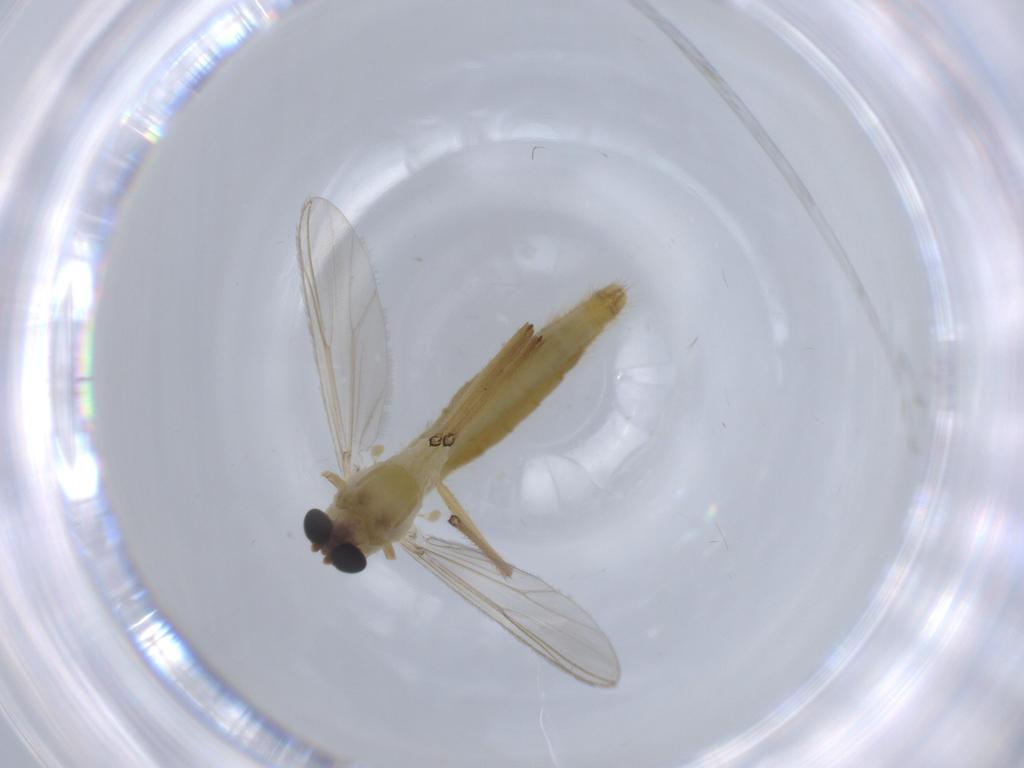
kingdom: Animalia
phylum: Arthropoda
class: Insecta
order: Diptera
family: Chironomidae
